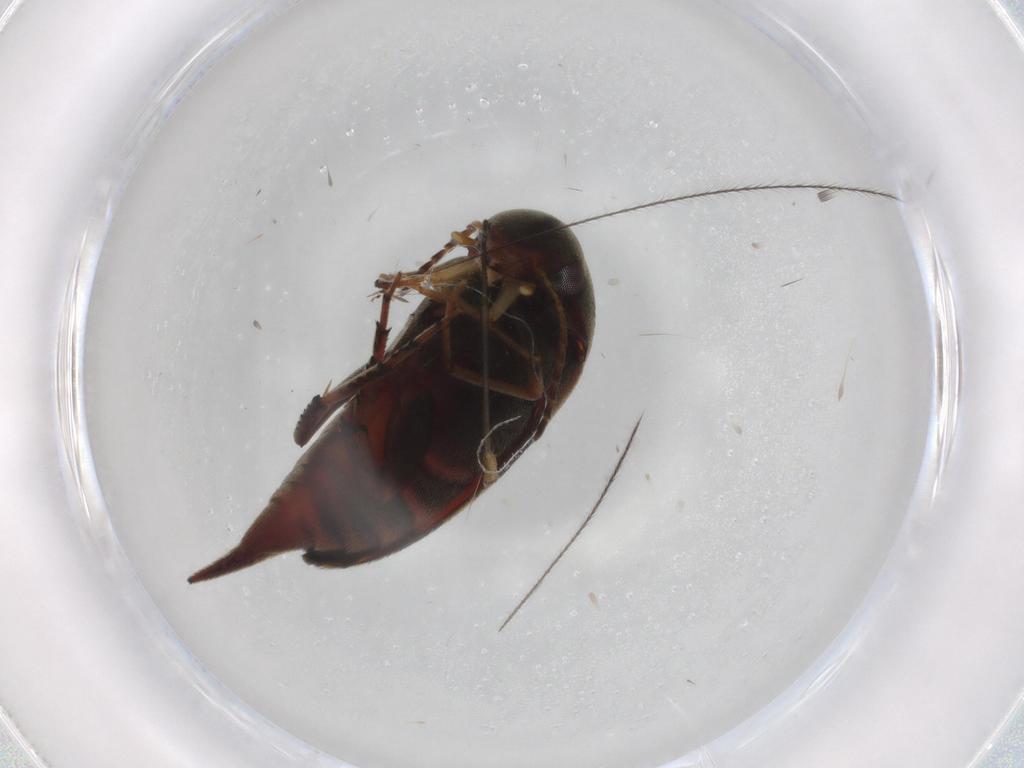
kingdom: Animalia
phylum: Arthropoda
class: Insecta
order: Coleoptera
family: Mordellidae
